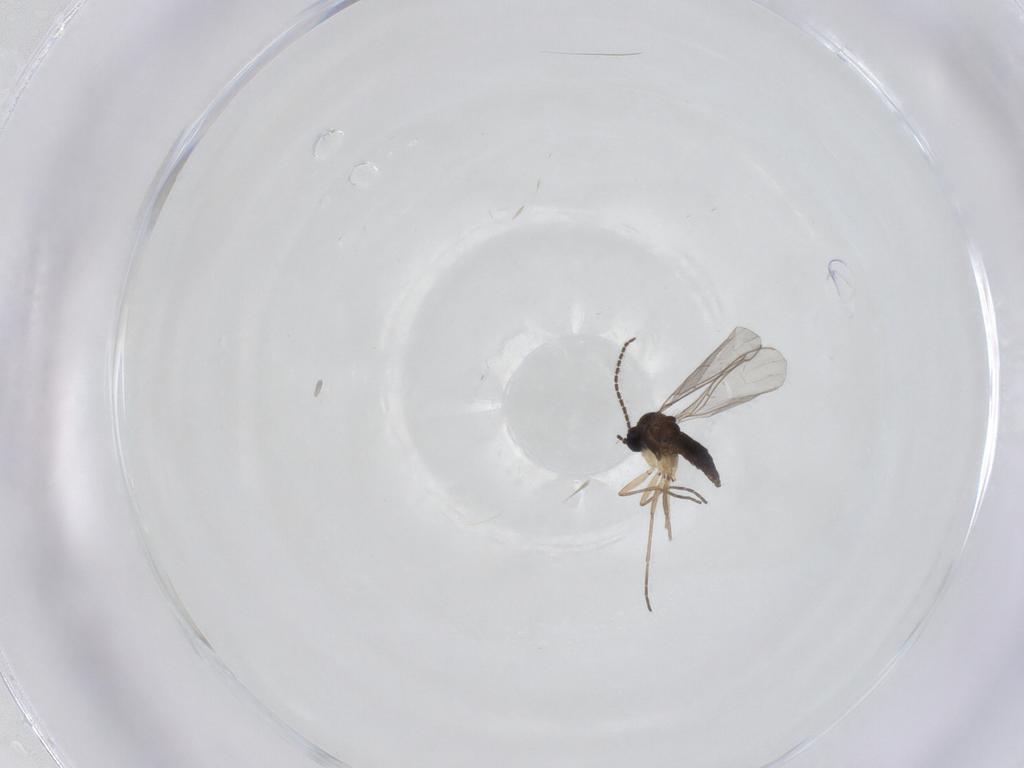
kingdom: Animalia
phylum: Arthropoda
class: Insecta
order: Diptera
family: Sciaridae
